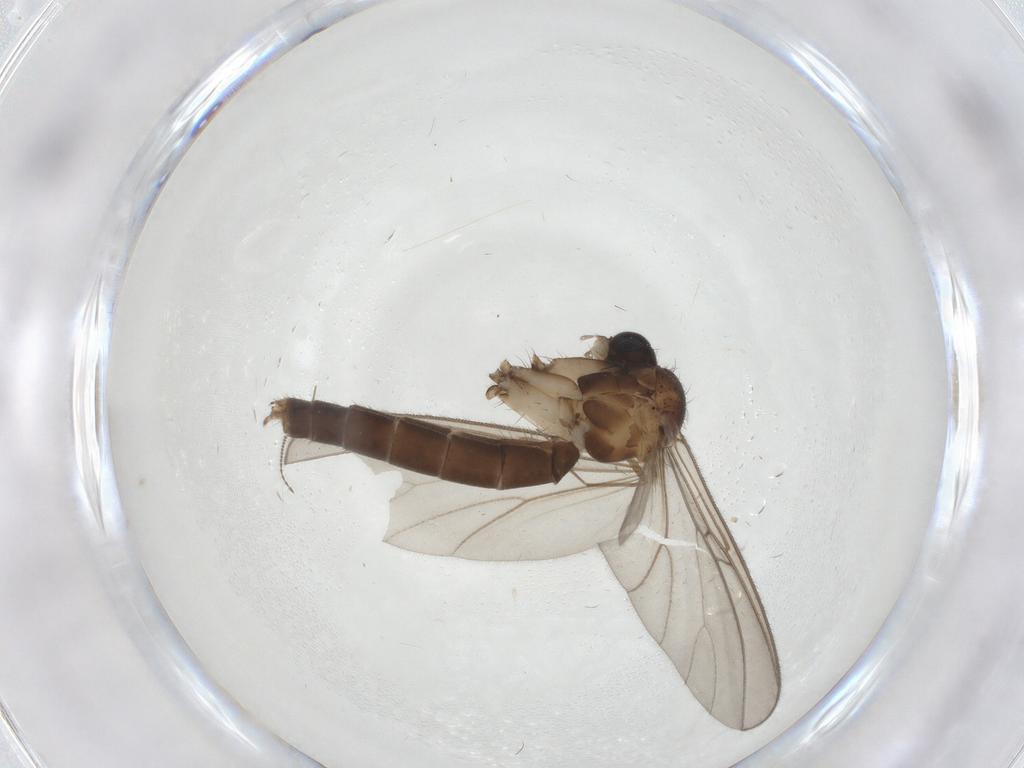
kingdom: Animalia
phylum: Arthropoda
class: Insecta
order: Diptera
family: Mycetophilidae
